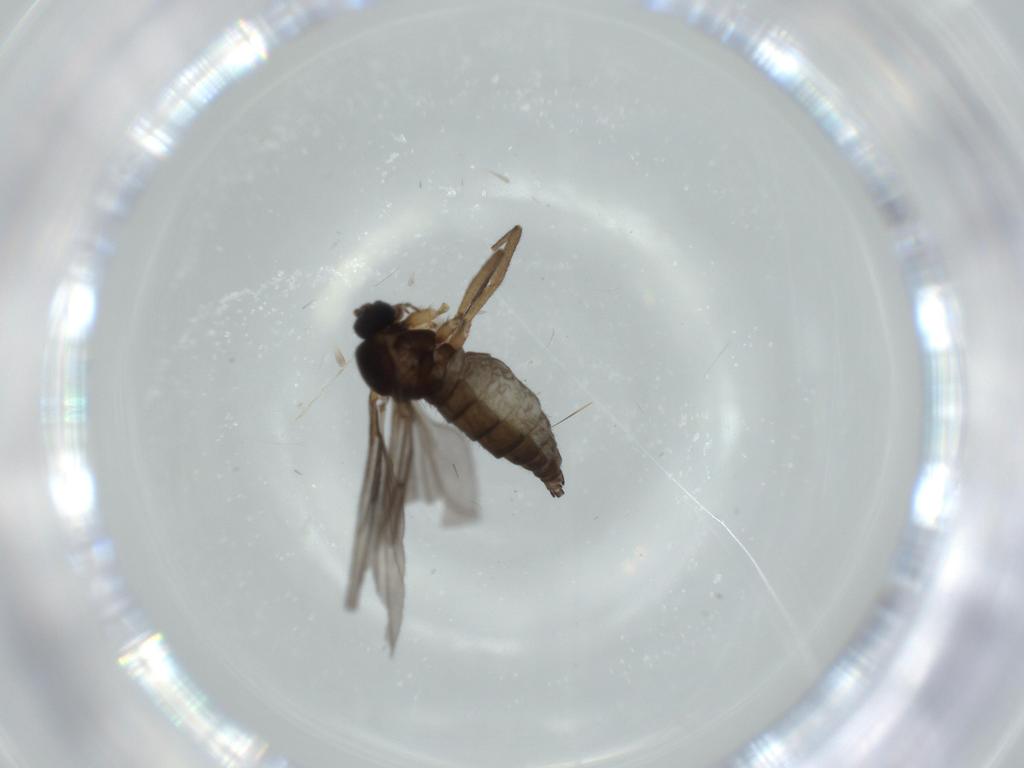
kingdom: Animalia
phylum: Arthropoda
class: Insecta
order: Diptera
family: Sciaridae
